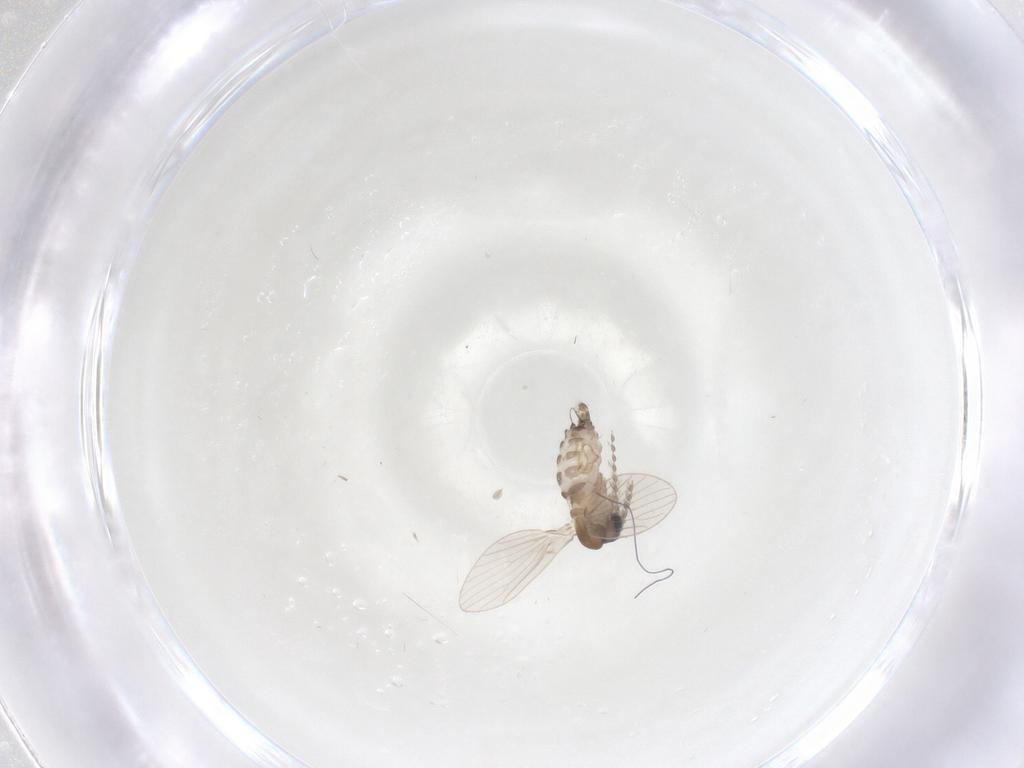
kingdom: Animalia
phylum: Arthropoda
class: Insecta
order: Diptera
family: Psychodidae
